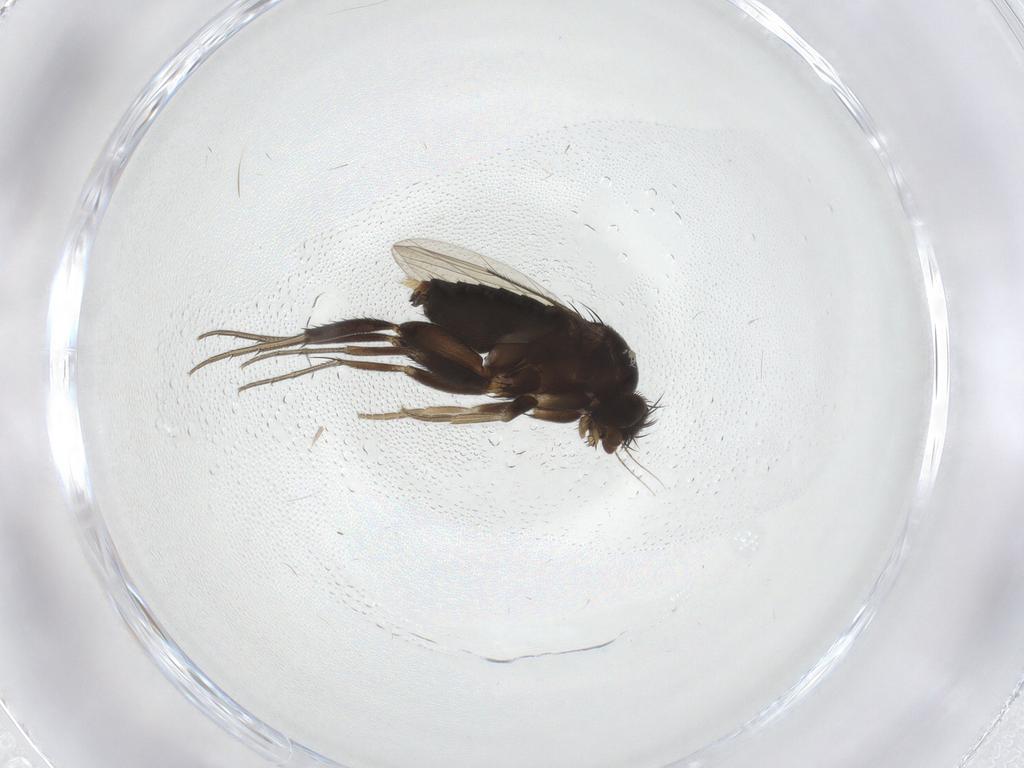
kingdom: Animalia
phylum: Arthropoda
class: Insecta
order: Diptera
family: Phoridae
